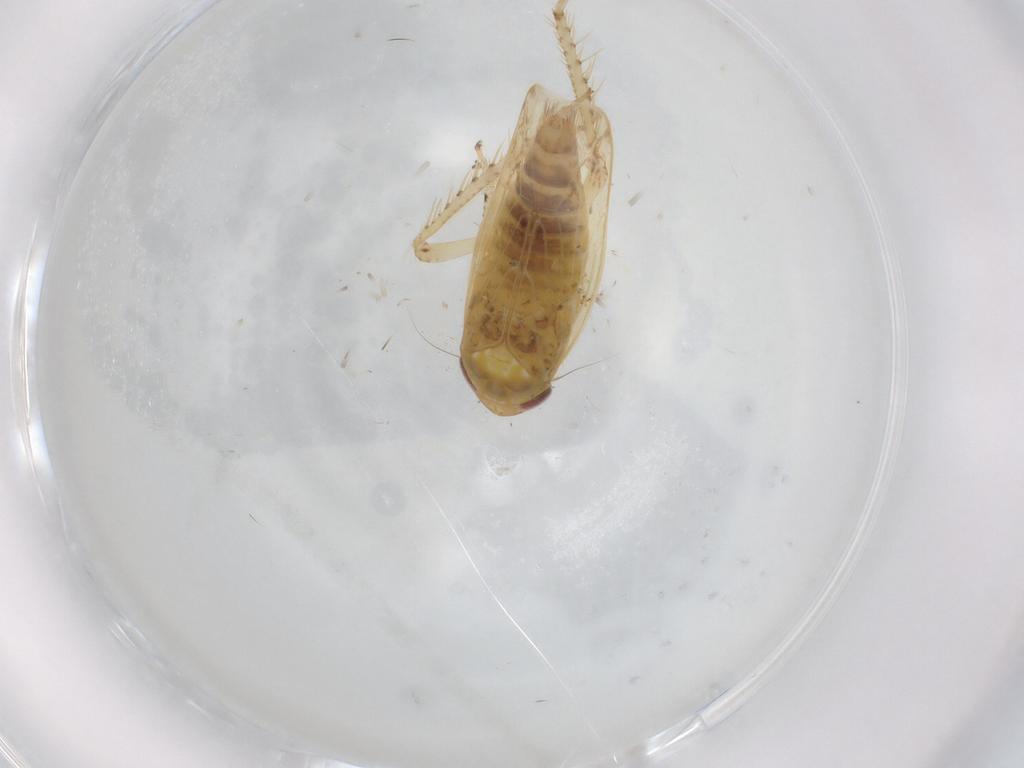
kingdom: Animalia
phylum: Arthropoda
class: Insecta
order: Hemiptera
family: Cicadellidae
